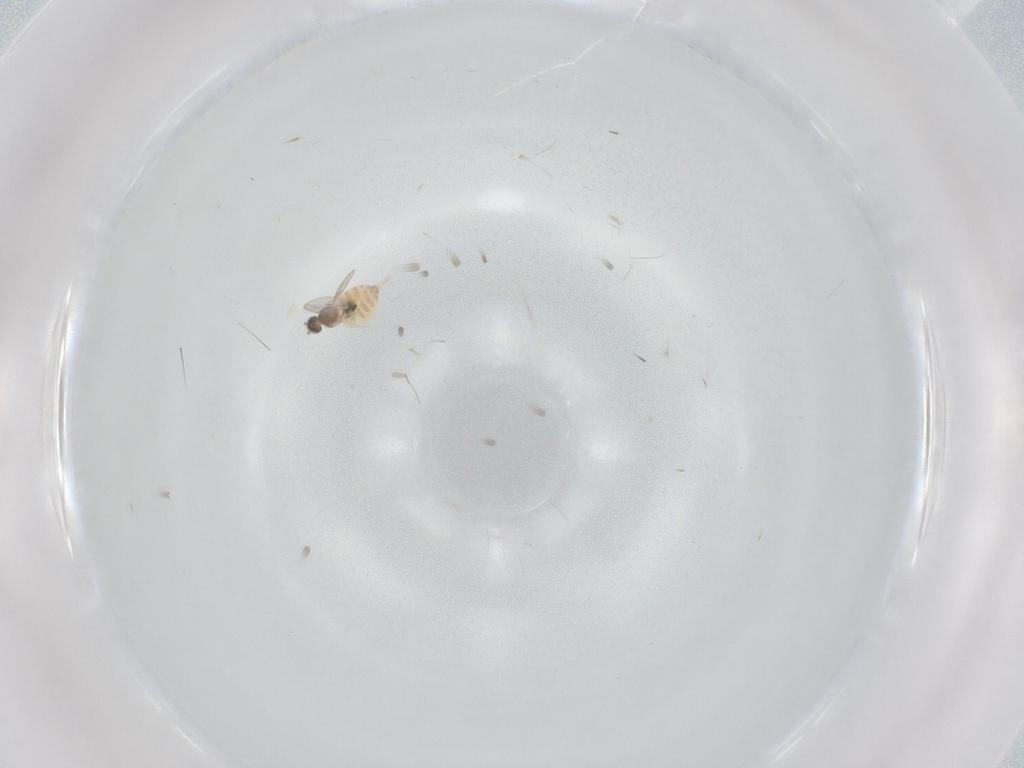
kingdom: Animalia
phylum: Arthropoda
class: Insecta
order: Diptera
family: Cecidomyiidae
